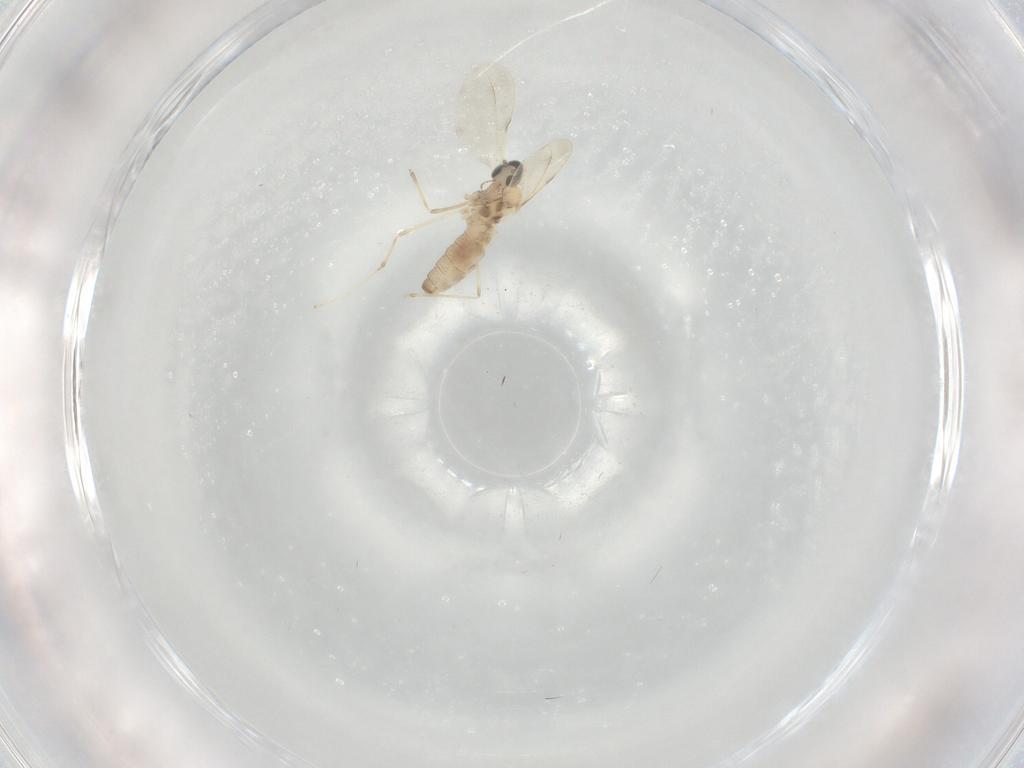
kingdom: Animalia
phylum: Arthropoda
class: Insecta
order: Diptera
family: Cecidomyiidae
